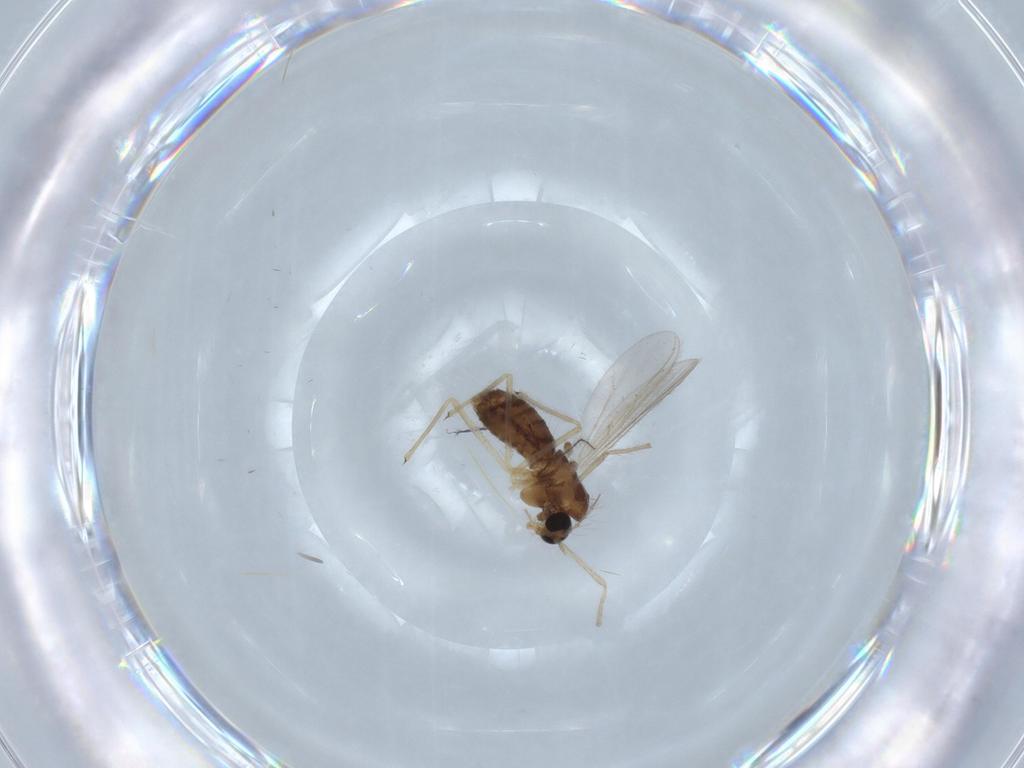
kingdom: Animalia
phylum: Arthropoda
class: Insecta
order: Diptera
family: Chironomidae
